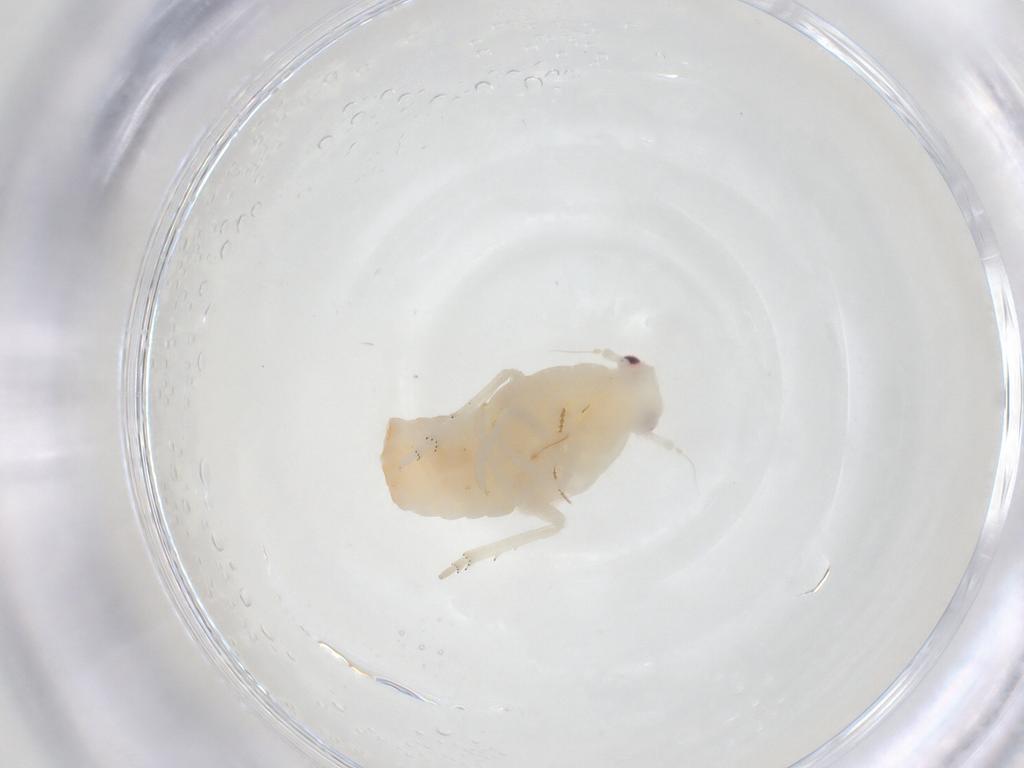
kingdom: Animalia
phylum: Arthropoda
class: Insecta
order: Hemiptera
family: Flatidae
